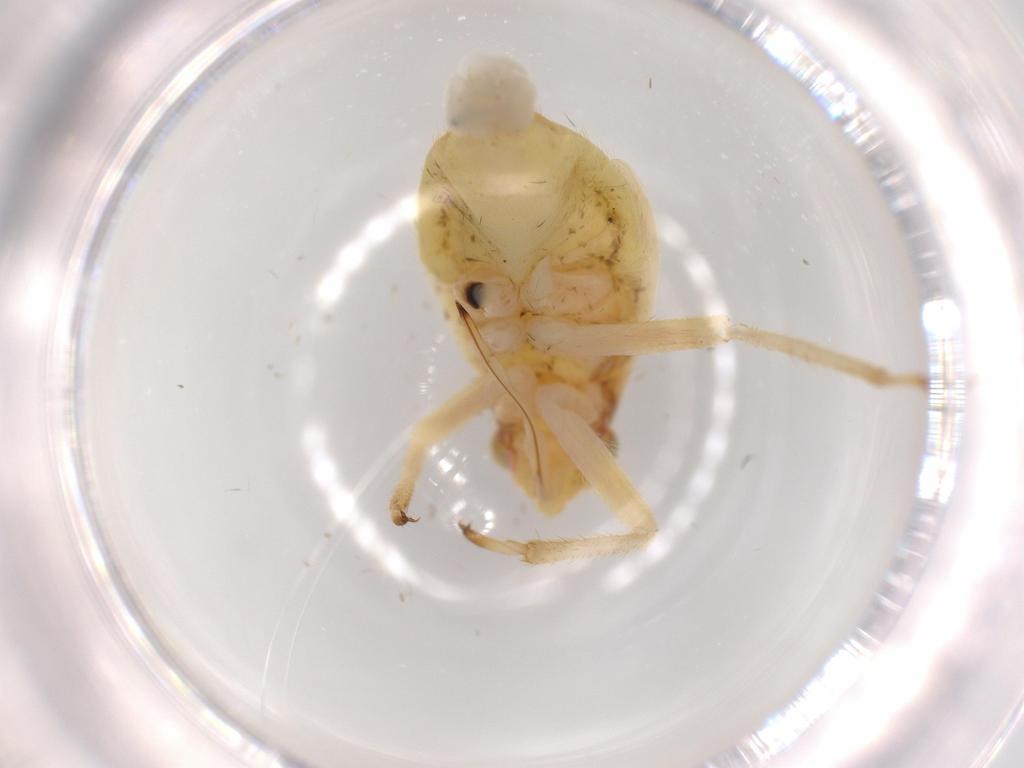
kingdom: Animalia
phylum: Arthropoda
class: Insecta
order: Hemiptera
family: Miridae
